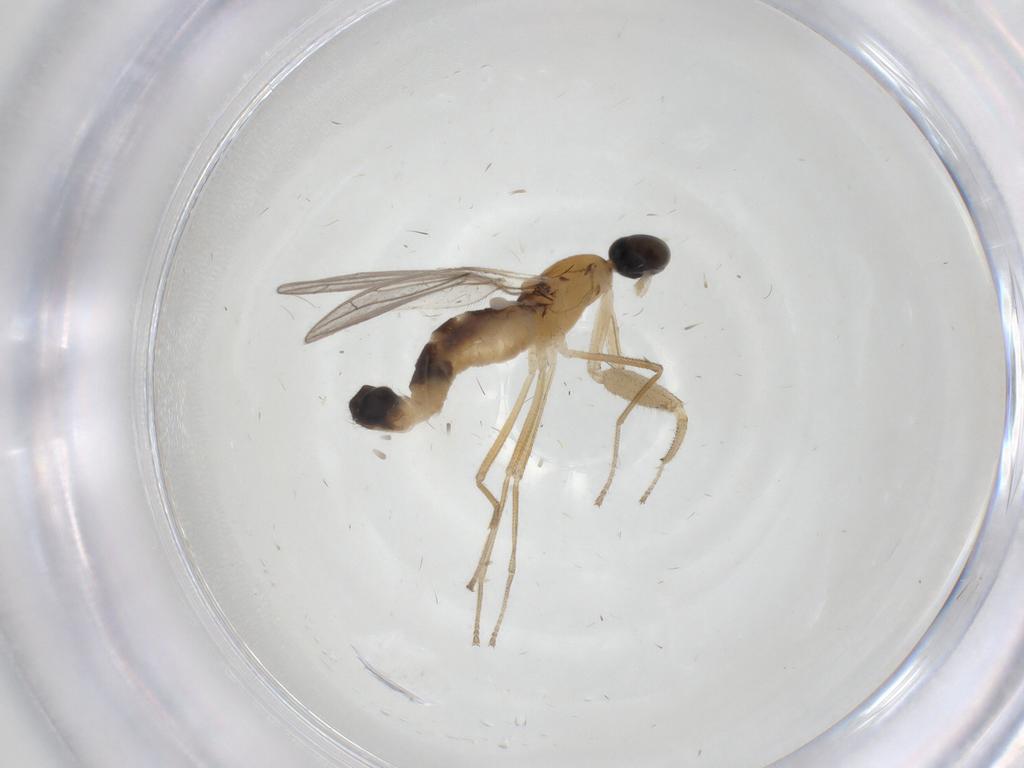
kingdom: Animalia
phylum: Arthropoda
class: Insecta
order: Diptera
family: Empididae
